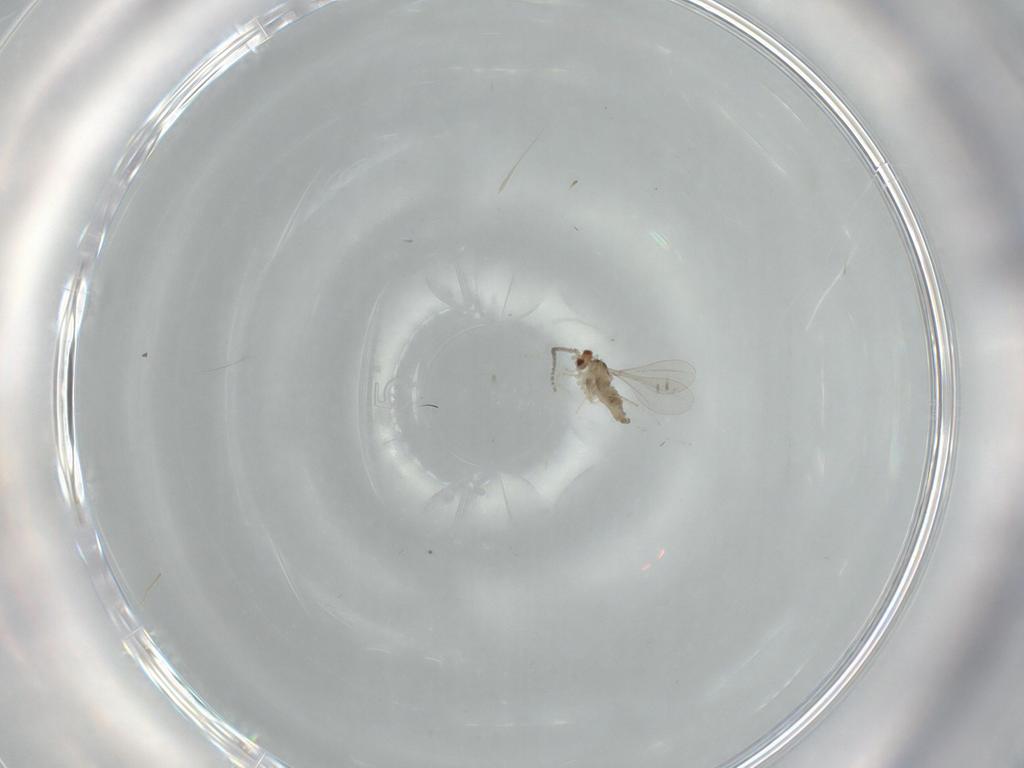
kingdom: Animalia
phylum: Arthropoda
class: Insecta
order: Diptera
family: Cecidomyiidae
